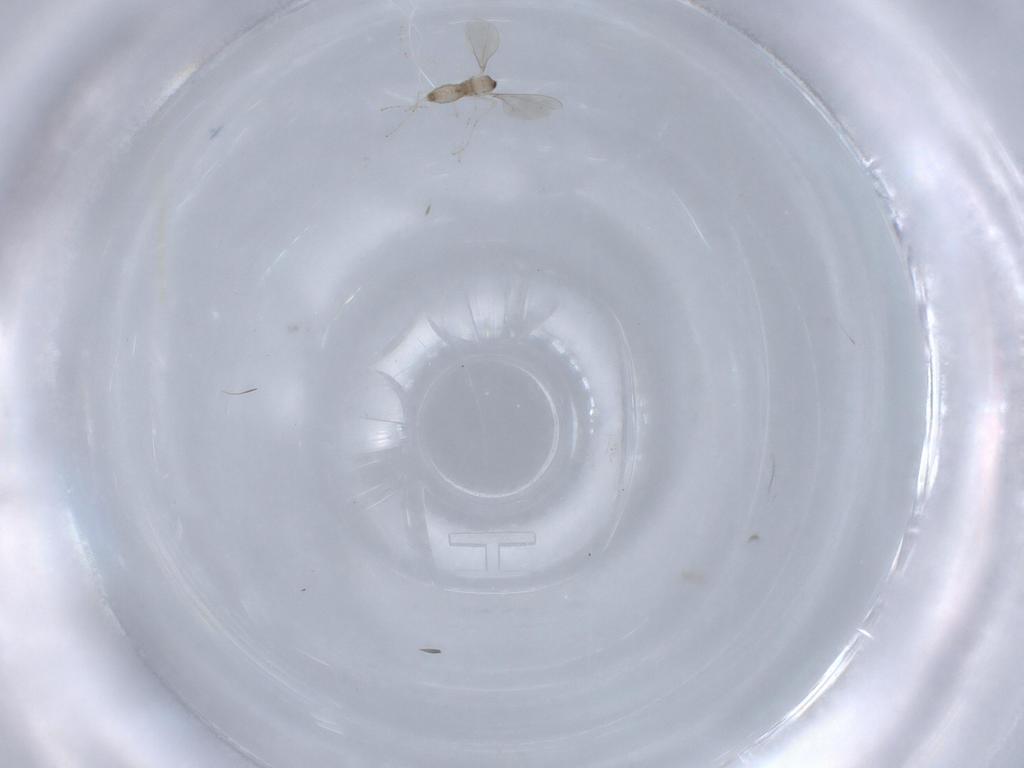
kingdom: Animalia
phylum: Arthropoda
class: Insecta
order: Diptera
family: Cecidomyiidae
